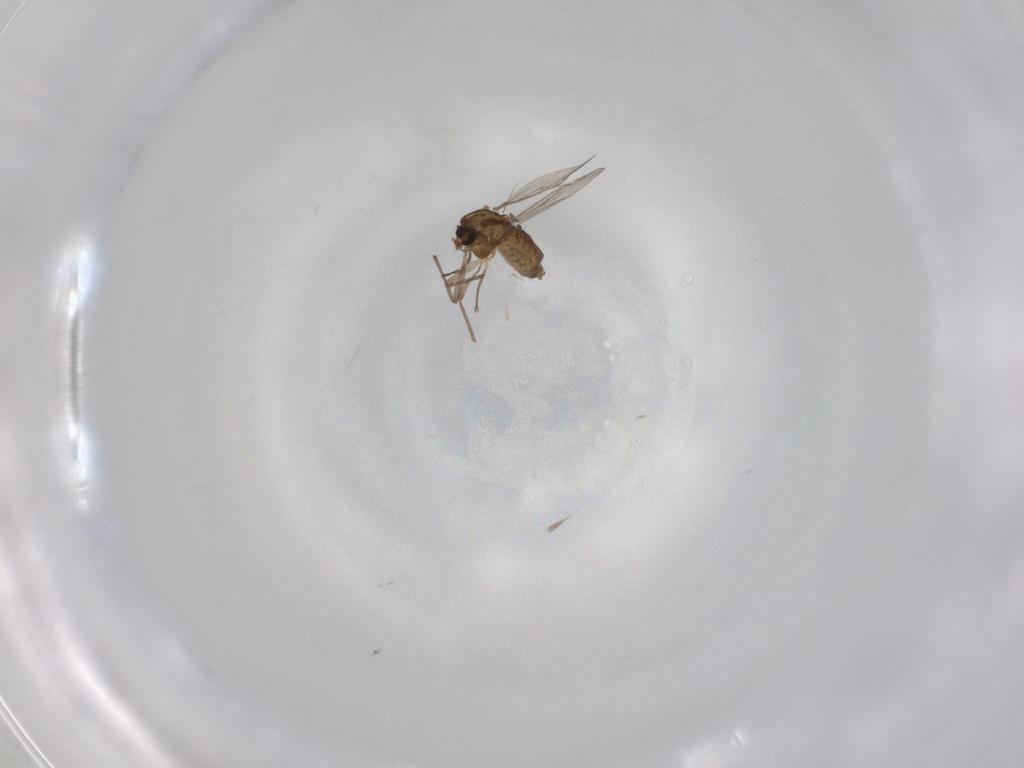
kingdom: Animalia
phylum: Arthropoda
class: Insecta
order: Diptera
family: Chironomidae
